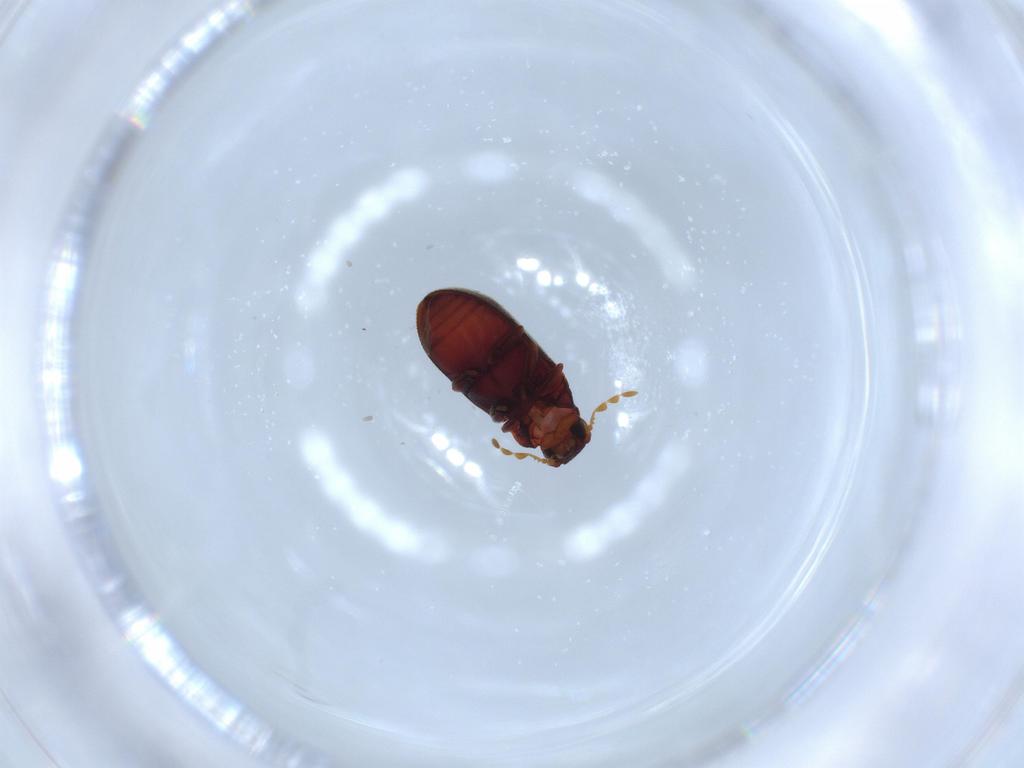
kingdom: Animalia
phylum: Arthropoda
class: Insecta
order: Coleoptera
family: Anobiidae
